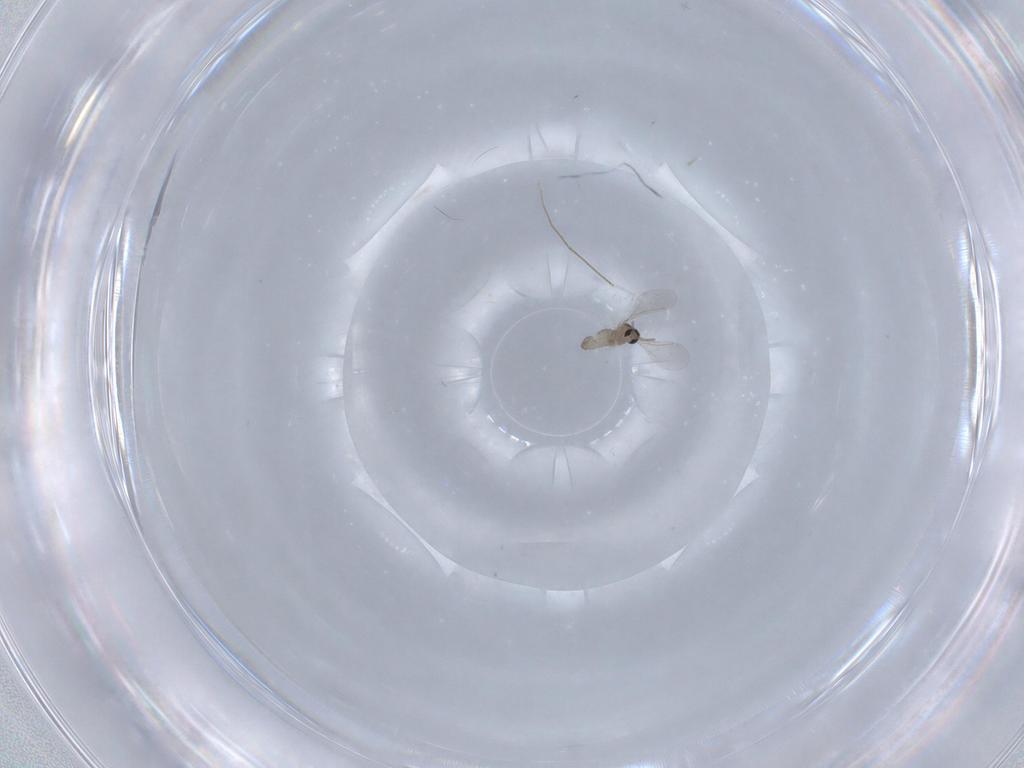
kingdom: Animalia
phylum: Arthropoda
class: Insecta
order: Diptera
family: Cecidomyiidae
